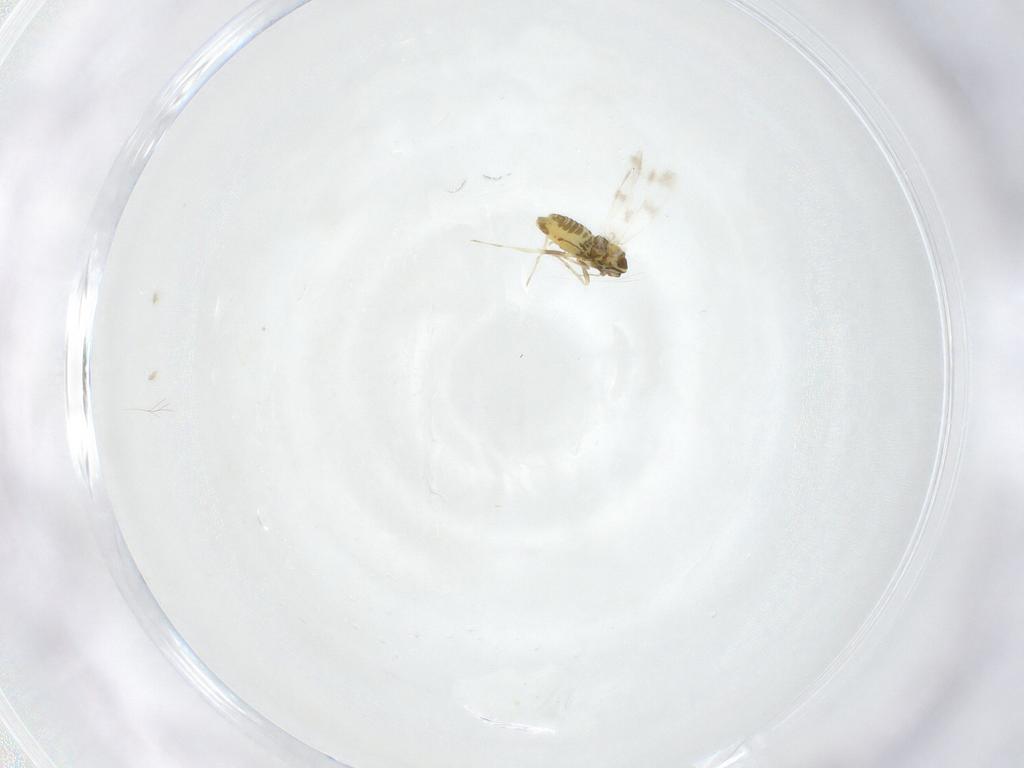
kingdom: Animalia
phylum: Arthropoda
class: Insecta
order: Hemiptera
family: Aleyrodidae
